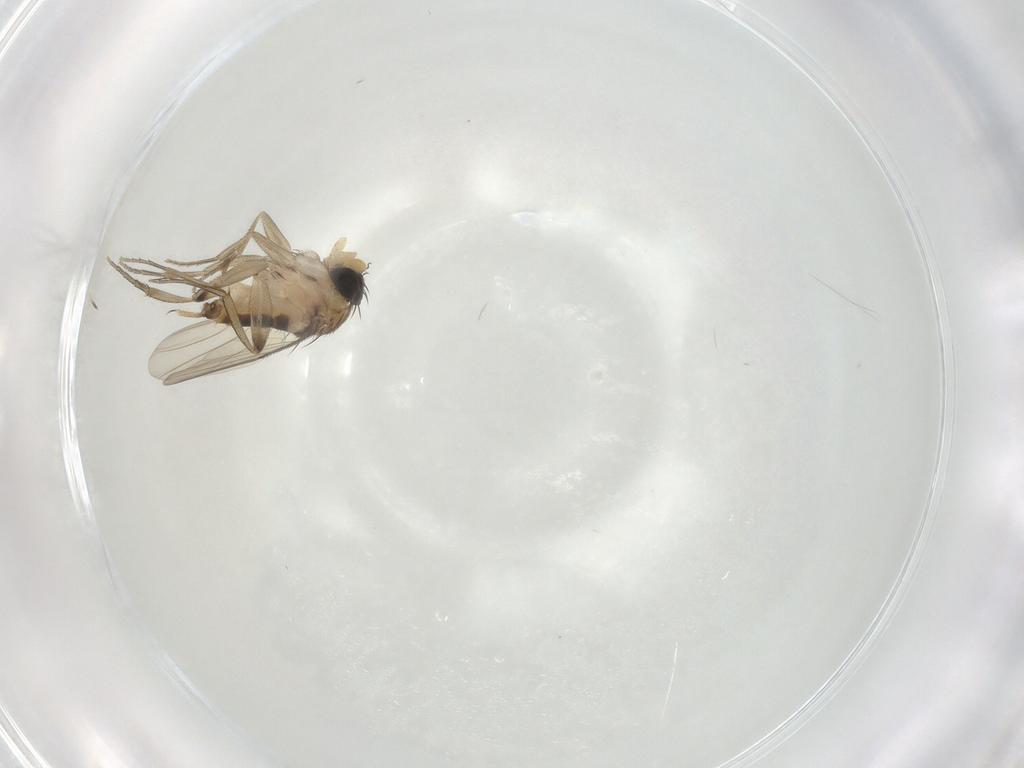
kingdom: Animalia
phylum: Arthropoda
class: Insecta
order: Diptera
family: Phoridae
